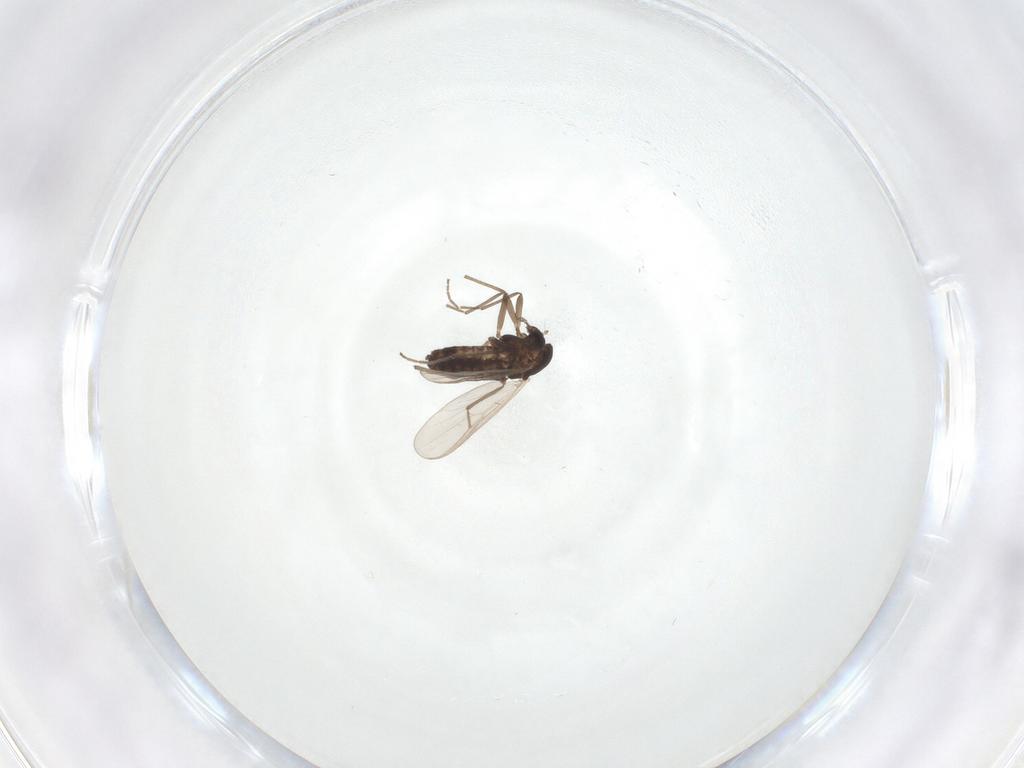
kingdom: Animalia
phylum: Arthropoda
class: Insecta
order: Diptera
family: Chironomidae
